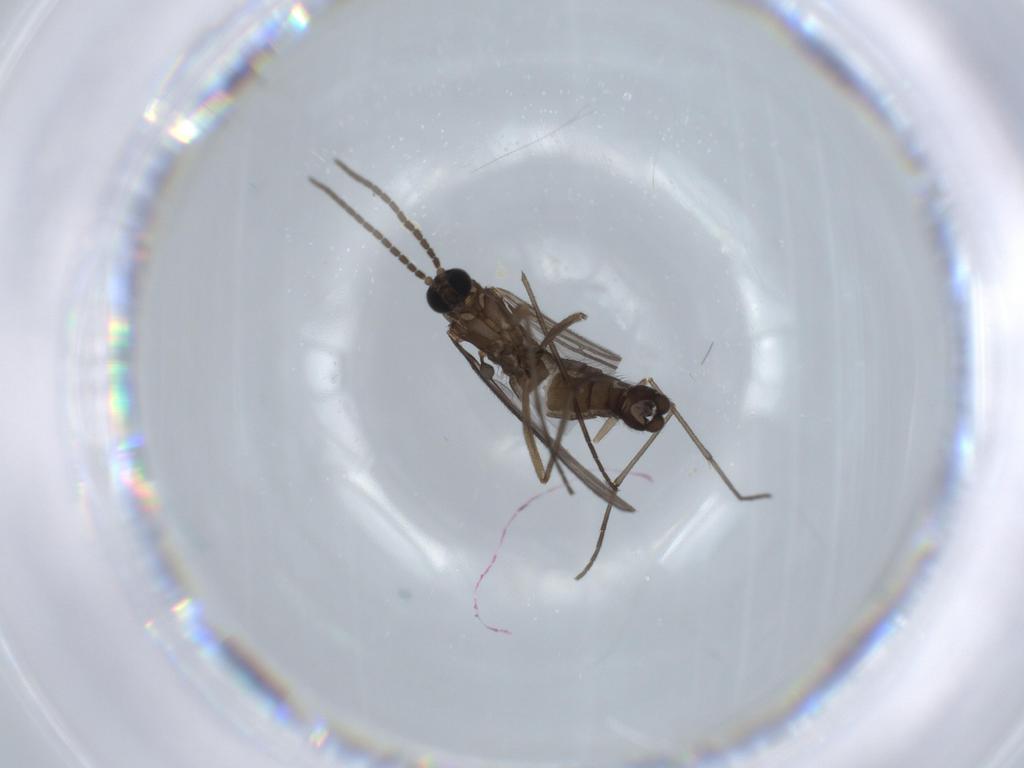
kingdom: Animalia
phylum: Arthropoda
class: Insecta
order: Diptera
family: Sciaridae
